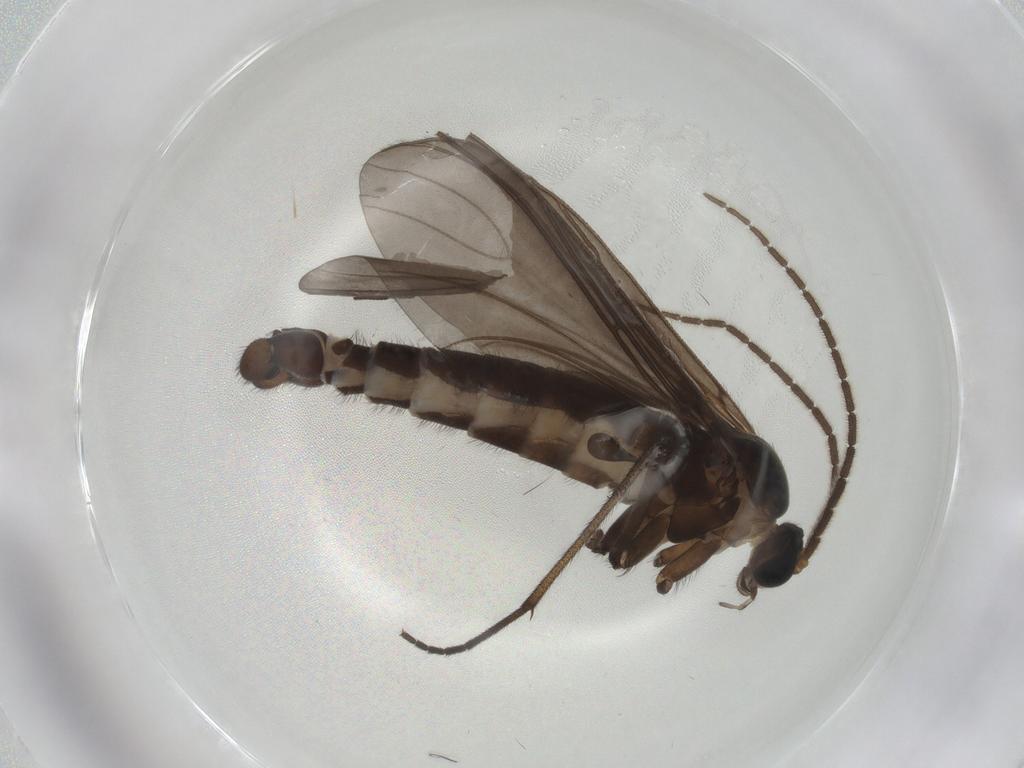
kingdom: Animalia
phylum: Arthropoda
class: Insecta
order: Diptera
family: Sciaridae
